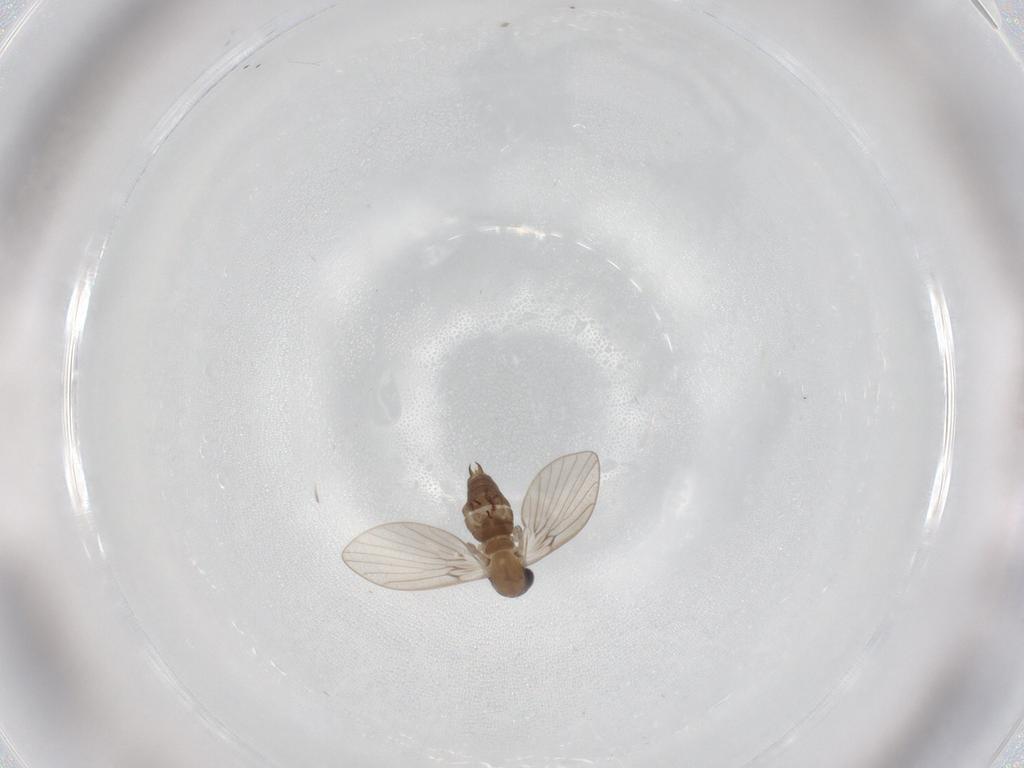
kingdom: Animalia
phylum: Arthropoda
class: Insecta
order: Diptera
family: Psychodidae
